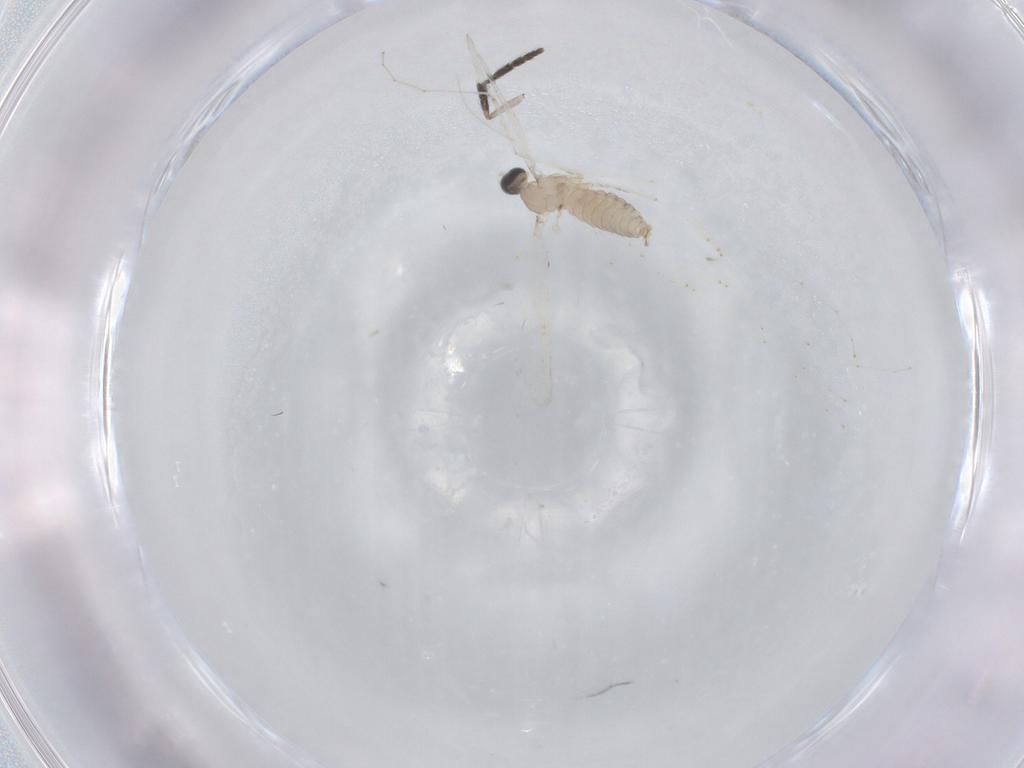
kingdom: Animalia
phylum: Arthropoda
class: Insecta
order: Diptera
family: Cecidomyiidae
